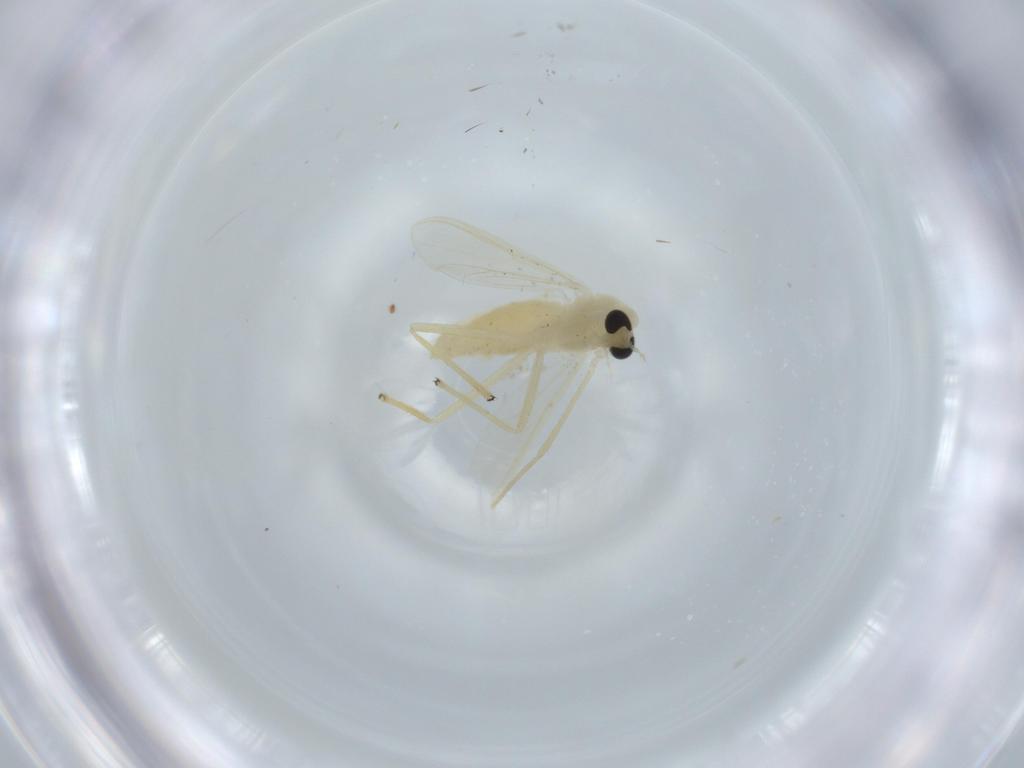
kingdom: Animalia
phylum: Arthropoda
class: Insecta
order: Diptera
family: Chironomidae
